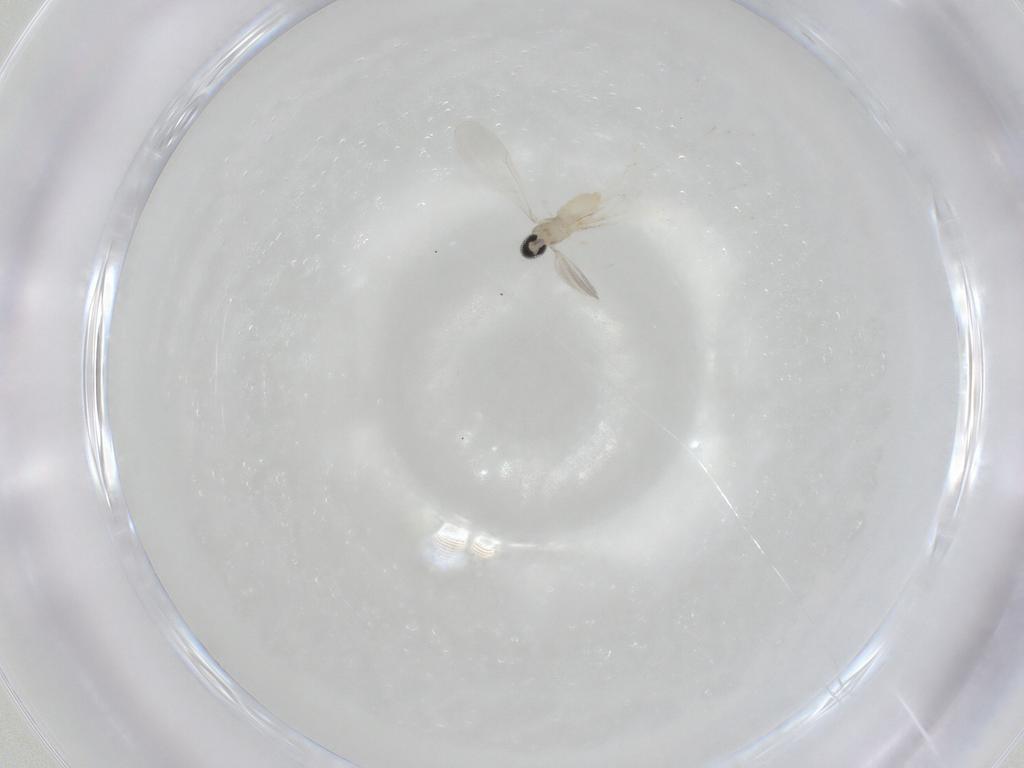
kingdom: Animalia
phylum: Arthropoda
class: Insecta
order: Diptera
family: Cecidomyiidae
